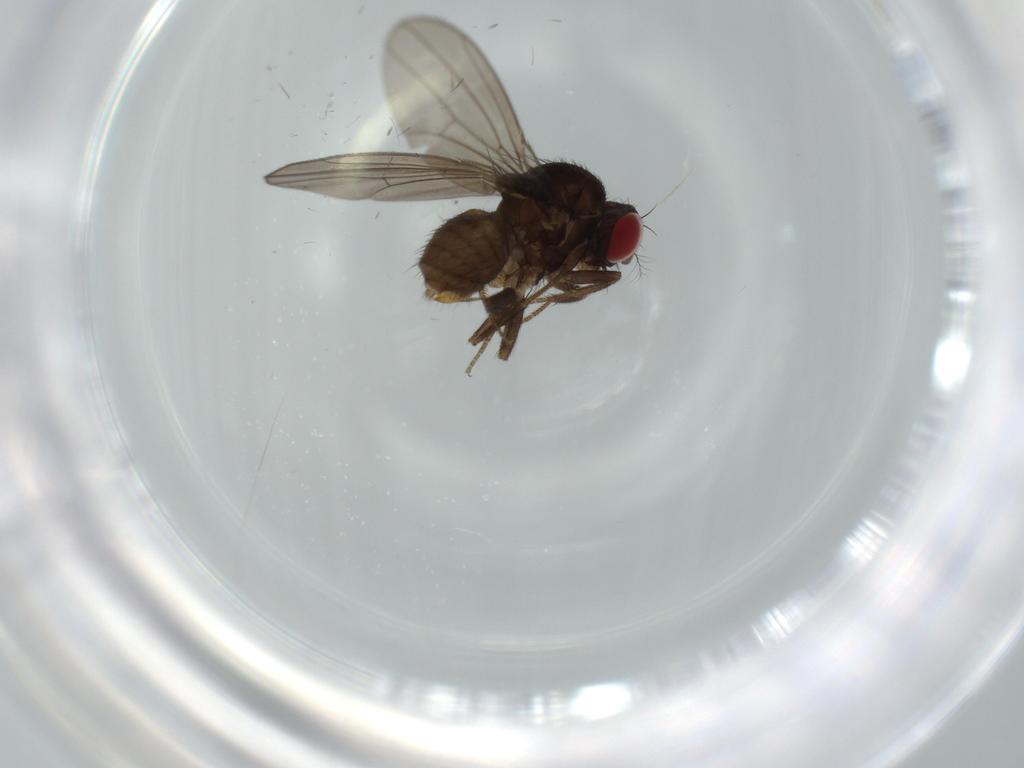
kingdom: Animalia
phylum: Arthropoda
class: Insecta
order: Diptera
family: Drosophilidae
